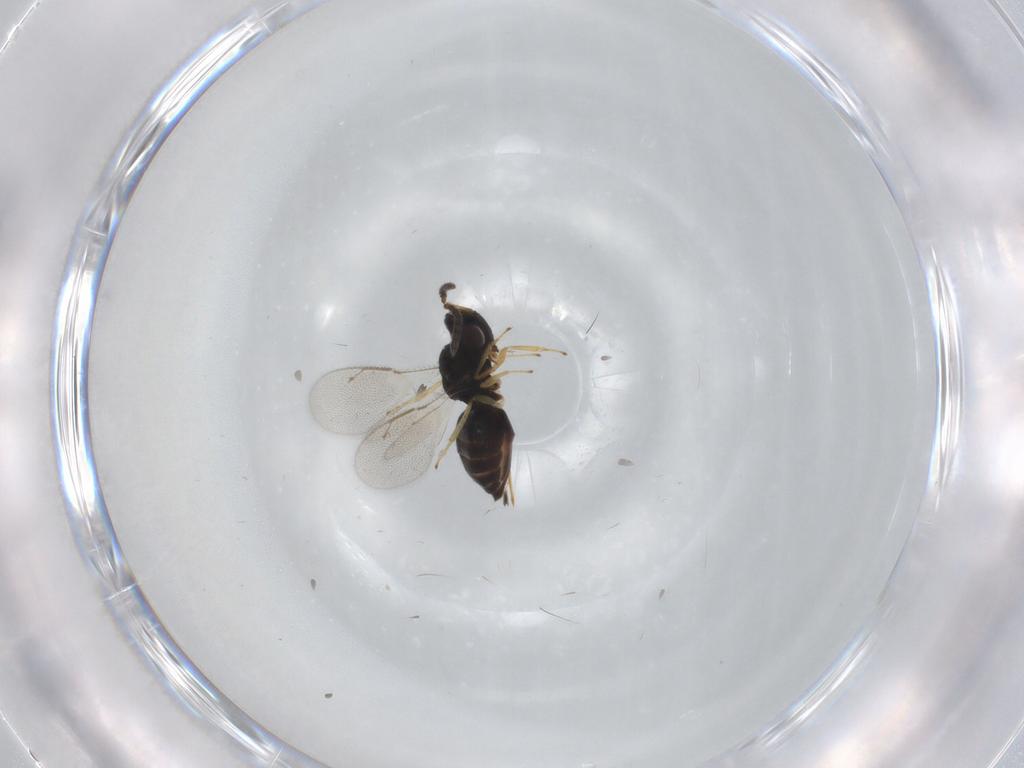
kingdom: Animalia
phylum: Arthropoda
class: Insecta
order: Hymenoptera
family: Pteromalidae
